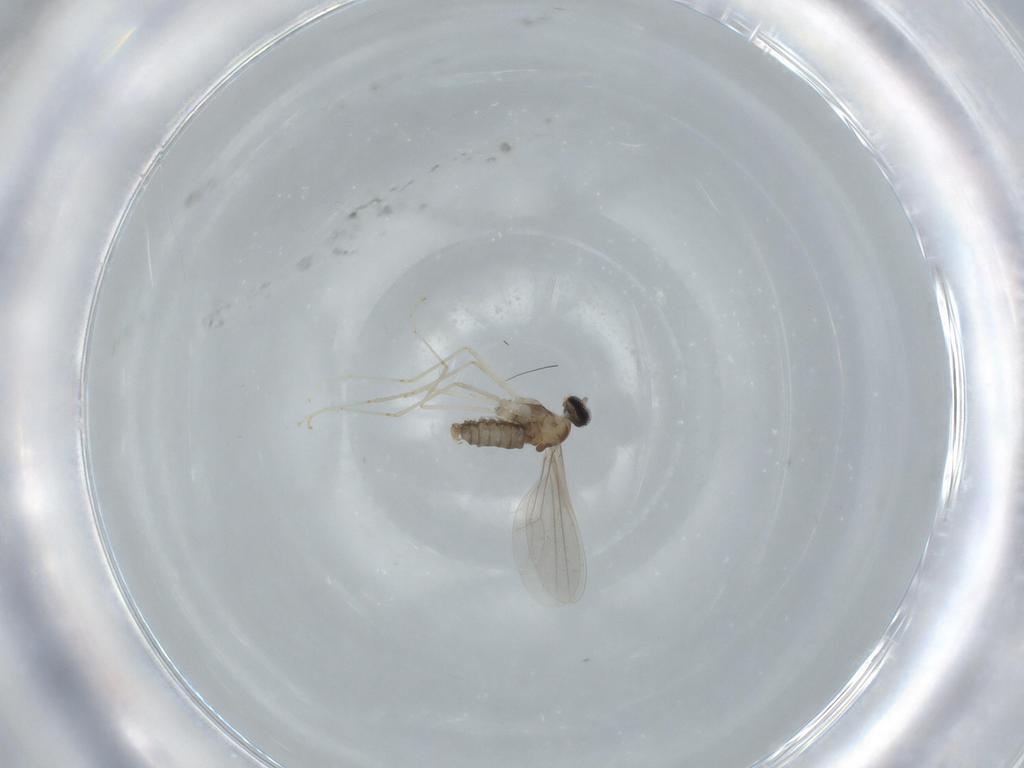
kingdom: Animalia
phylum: Arthropoda
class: Insecta
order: Diptera
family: Cecidomyiidae
